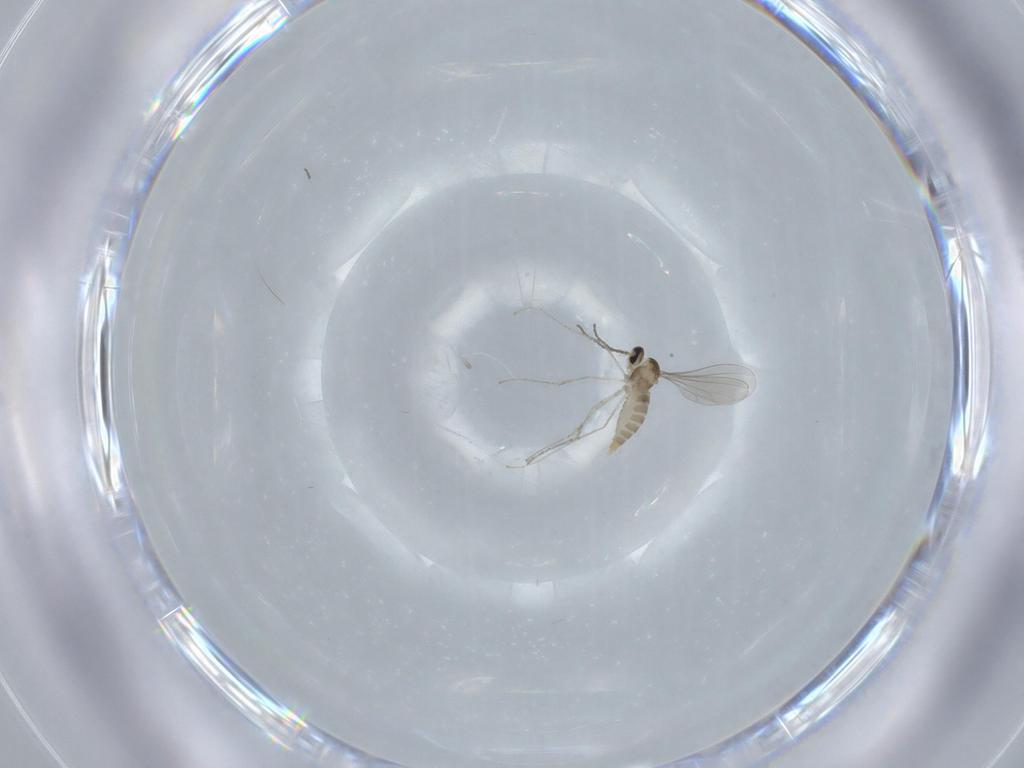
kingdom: Animalia
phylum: Arthropoda
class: Insecta
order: Diptera
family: Cecidomyiidae
